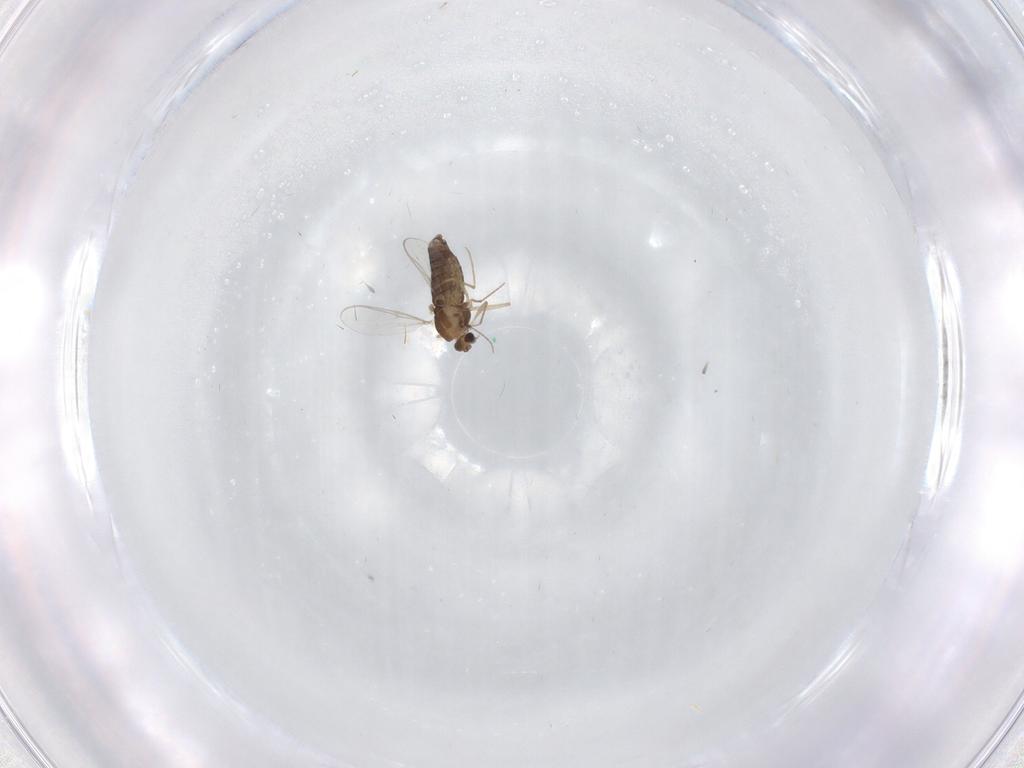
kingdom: Animalia
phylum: Arthropoda
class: Insecta
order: Diptera
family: Chironomidae
